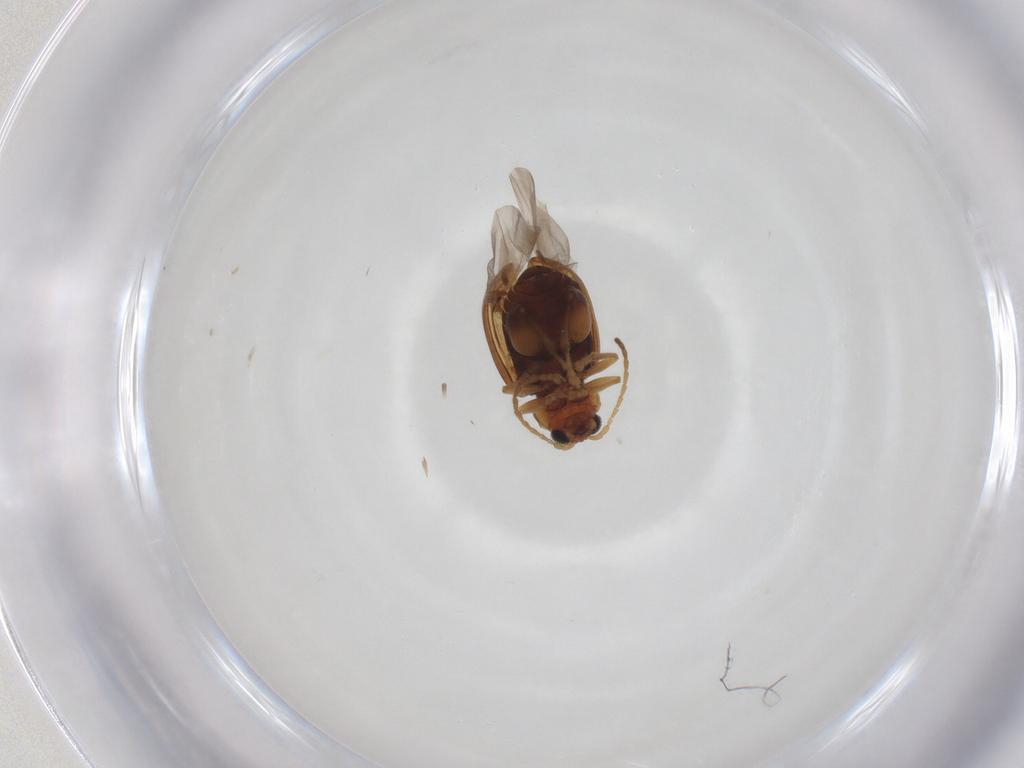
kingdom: Animalia
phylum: Arthropoda
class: Insecta
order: Coleoptera
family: Chrysomelidae
